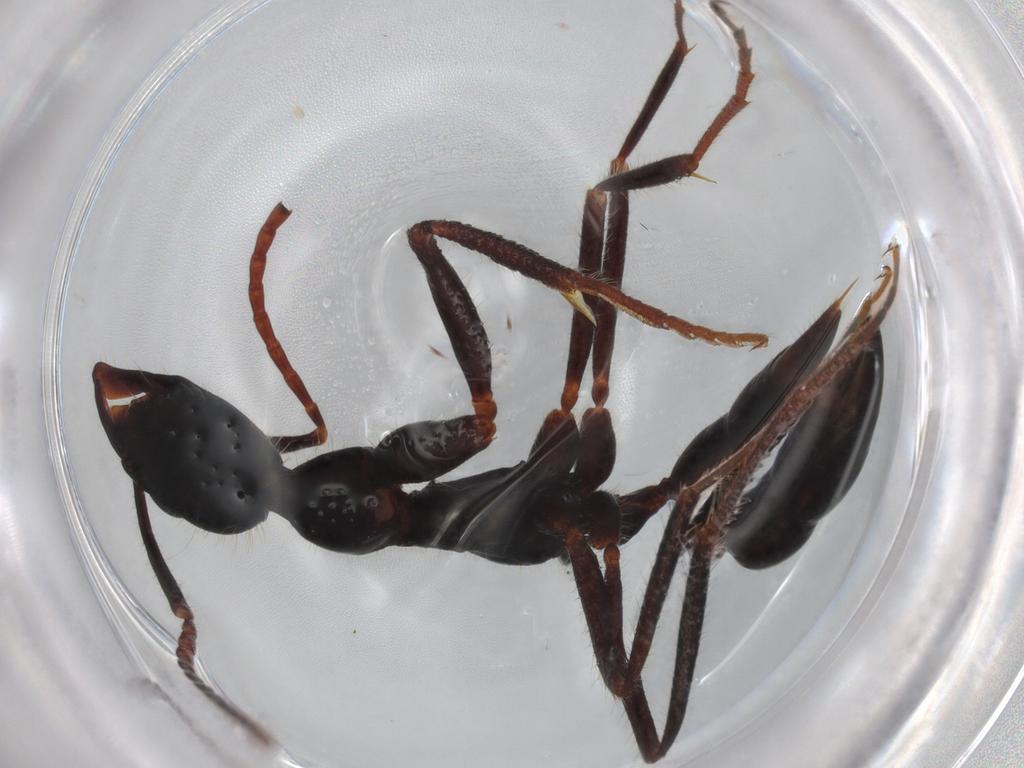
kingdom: Animalia
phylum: Arthropoda
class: Insecta
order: Hymenoptera
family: Formicidae
